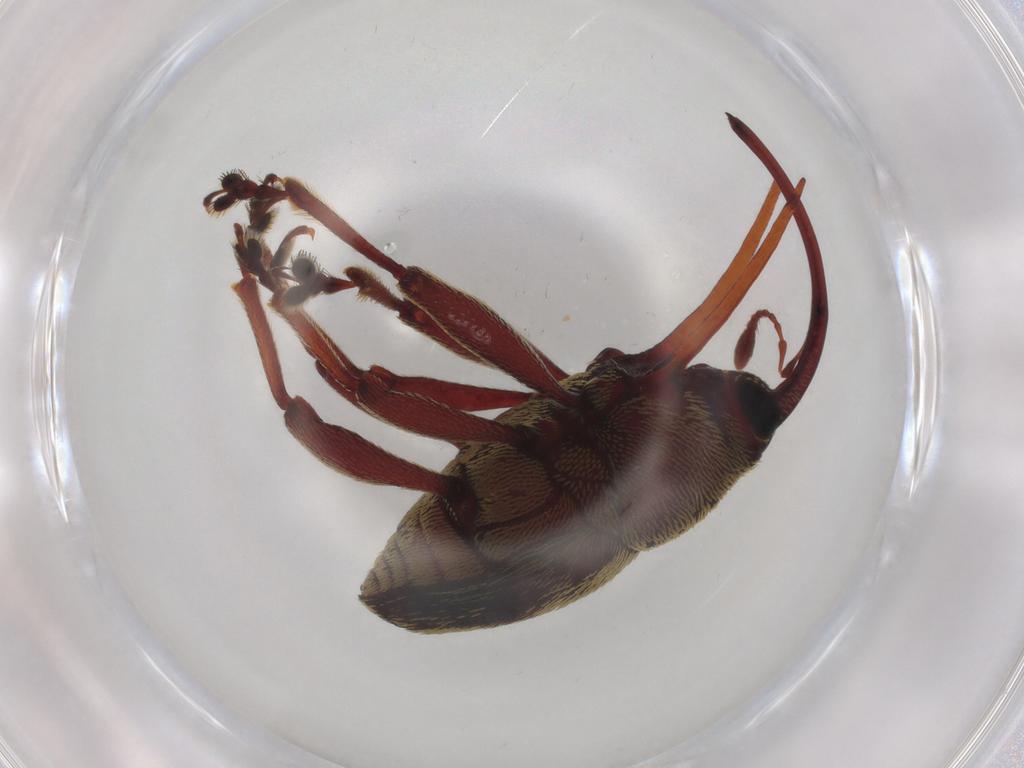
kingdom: Animalia
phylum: Arthropoda
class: Insecta
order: Coleoptera
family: Curculionidae
